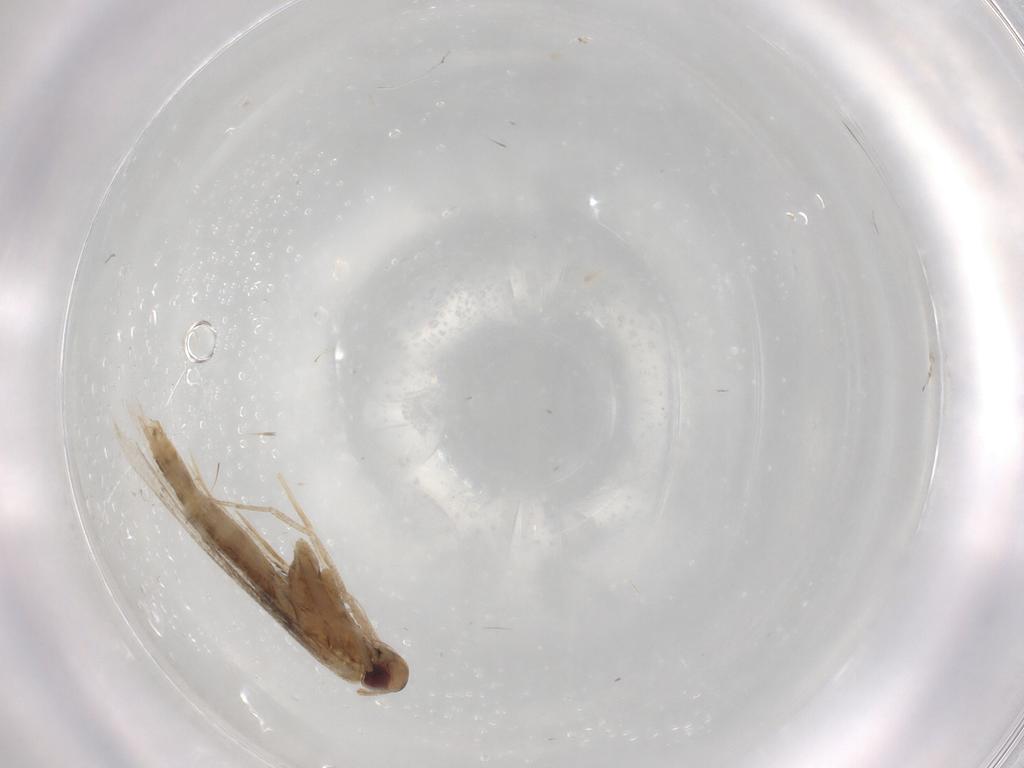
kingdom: Animalia
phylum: Arthropoda
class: Insecta
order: Lepidoptera
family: Cosmopterigidae
